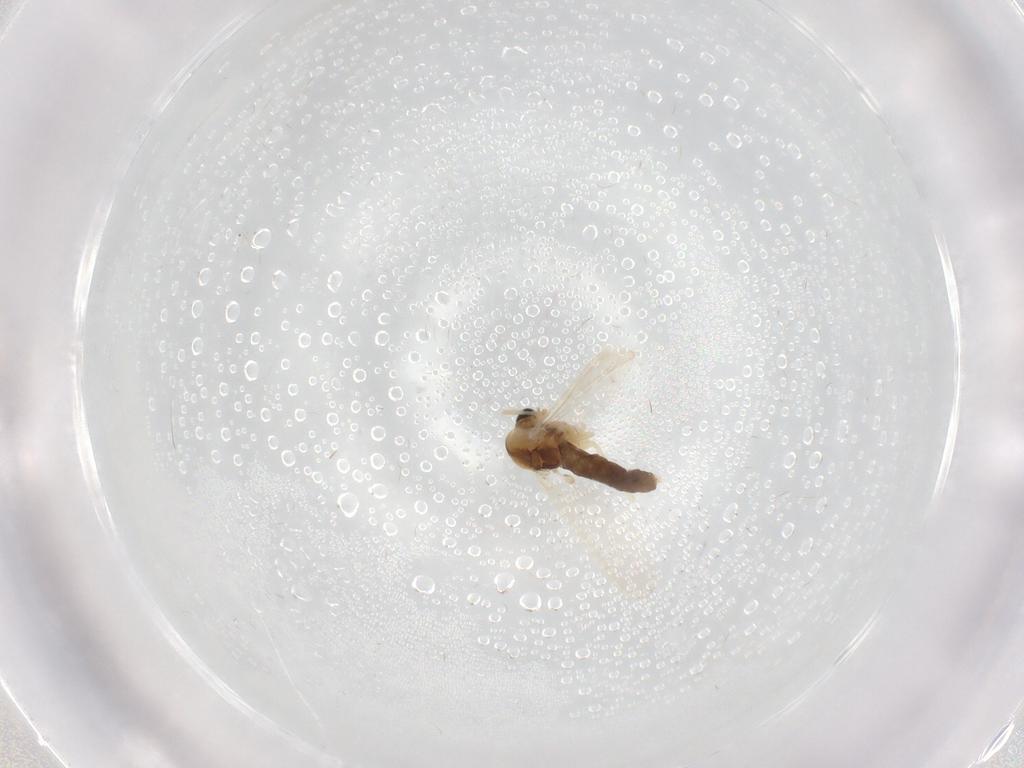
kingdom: Animalia
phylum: Arthropoda
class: Insecta
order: Diptera
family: Chironomidae
